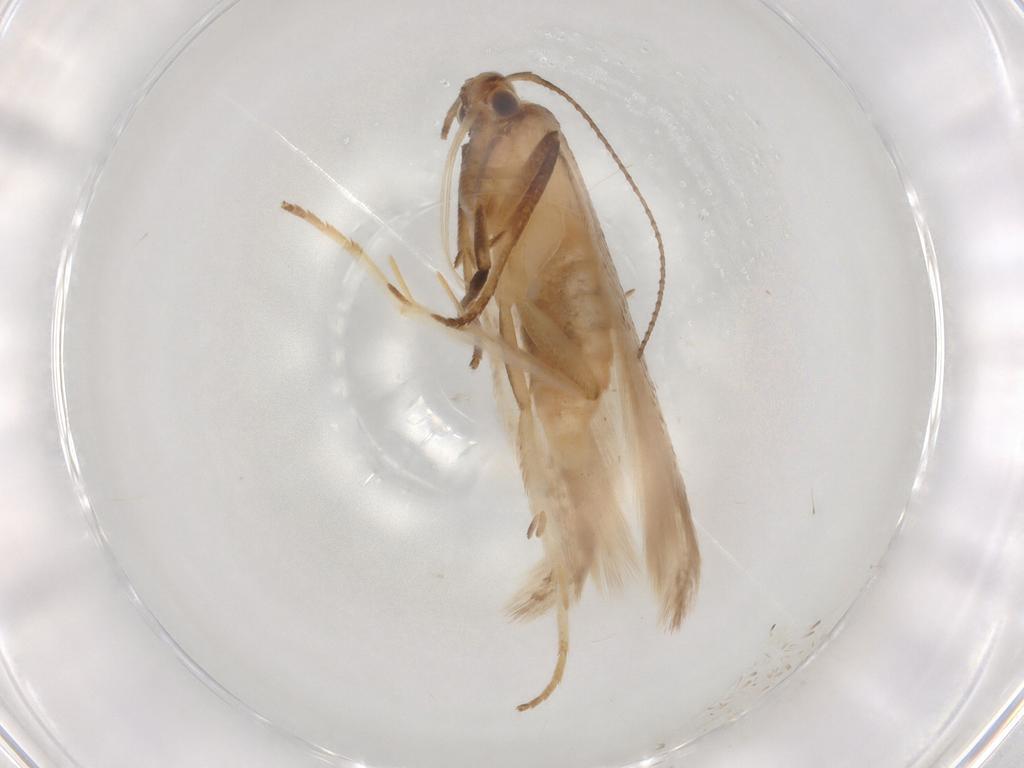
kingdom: Animalia
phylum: Arthropoda
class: Insecta
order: Lepidoptera
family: Gelechiidae
